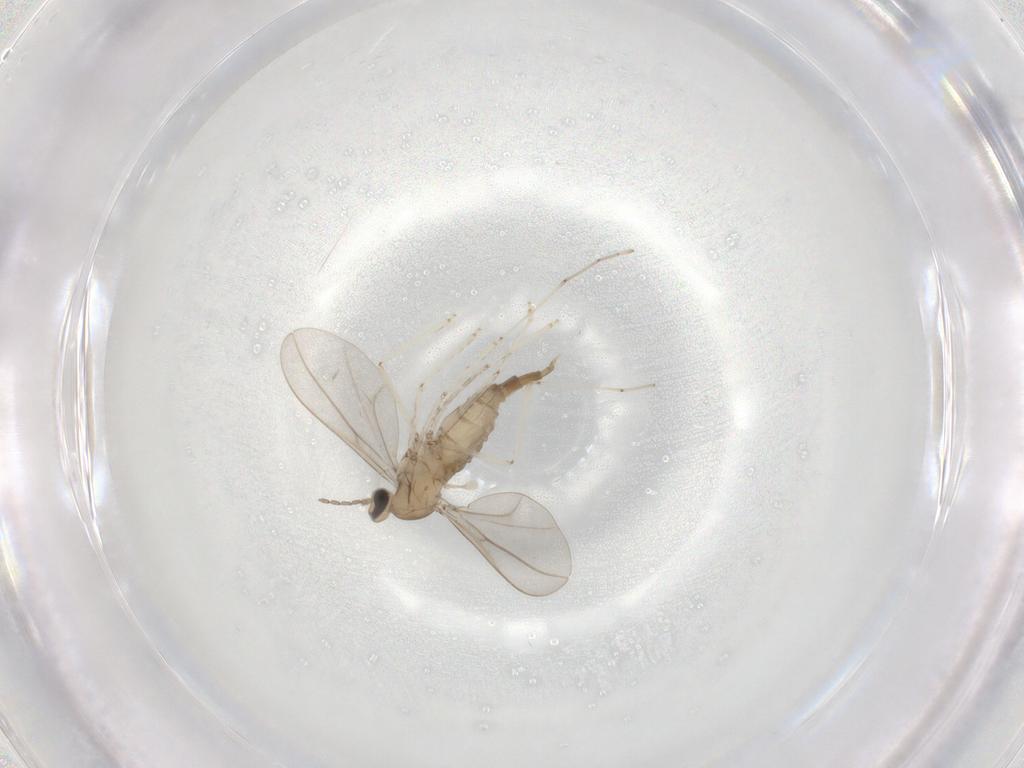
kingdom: Animalia
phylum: Arthropoda
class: Insecta
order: Diptera
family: Cecidomyiidae
